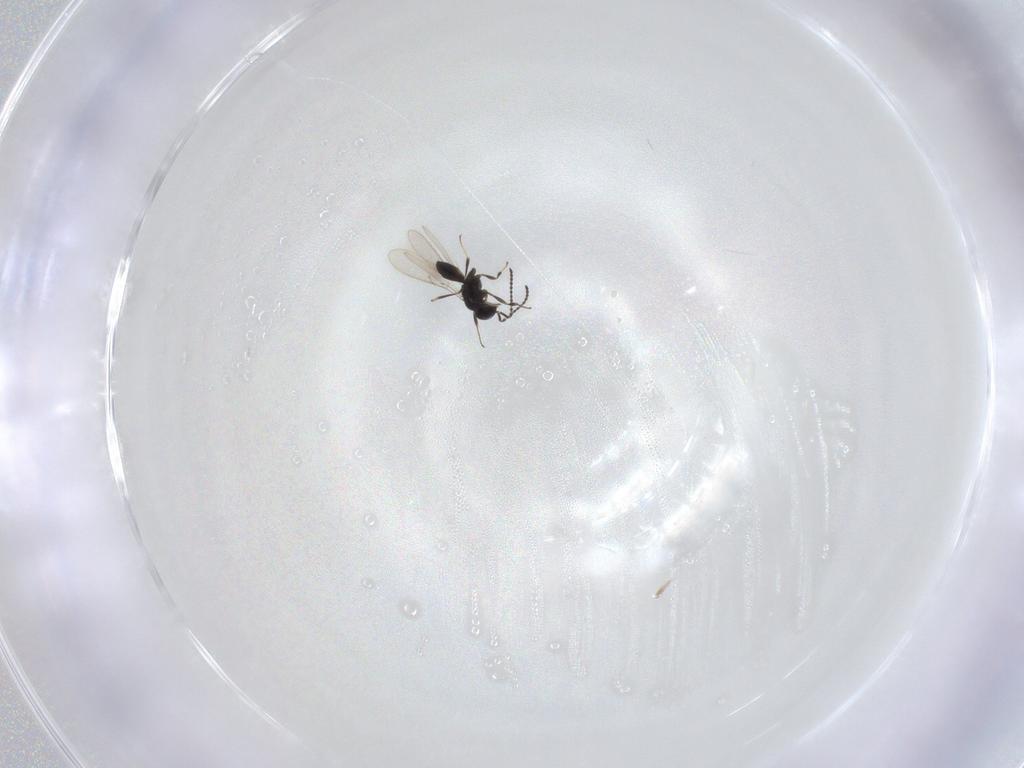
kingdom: Animalia
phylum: Arthropoda
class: Insecta
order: Hymenoptera
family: Scelionidae
